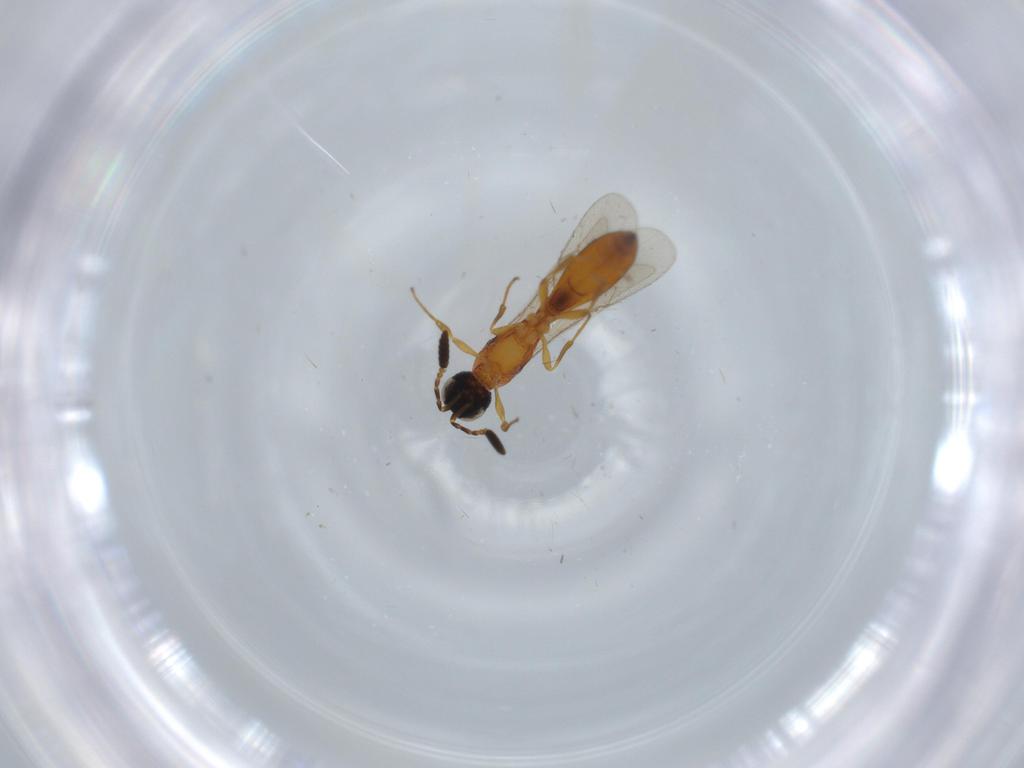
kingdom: Animalia
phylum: Arthropoda
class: Insecta
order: Hymenoptera
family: Scelionidae
